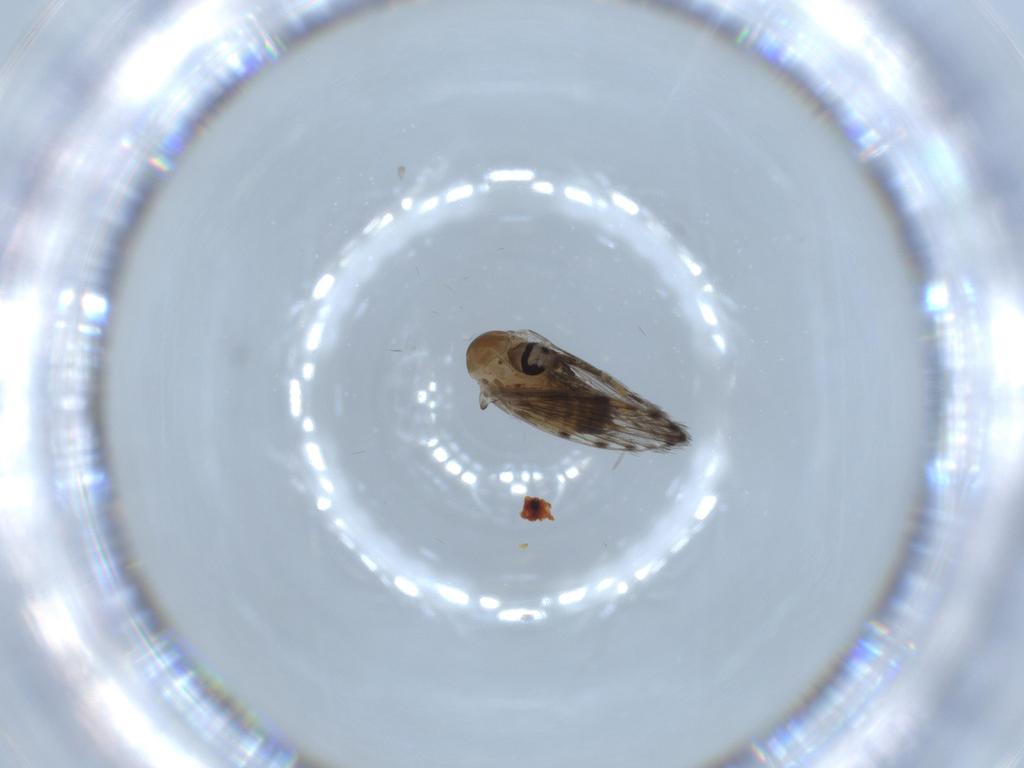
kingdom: Animalia
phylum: Arthropoda
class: Insecta
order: Diptera
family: Psychodidae
